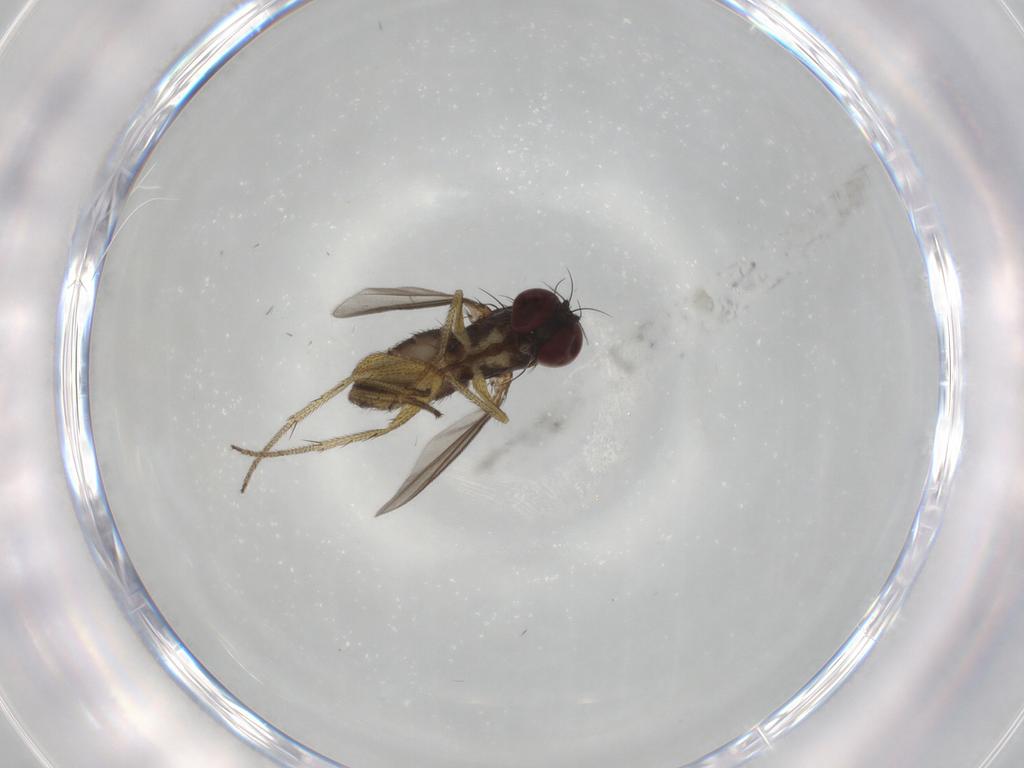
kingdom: Animalia
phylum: Arthropoda
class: Insecta
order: Diptera
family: Dolichopodidae
